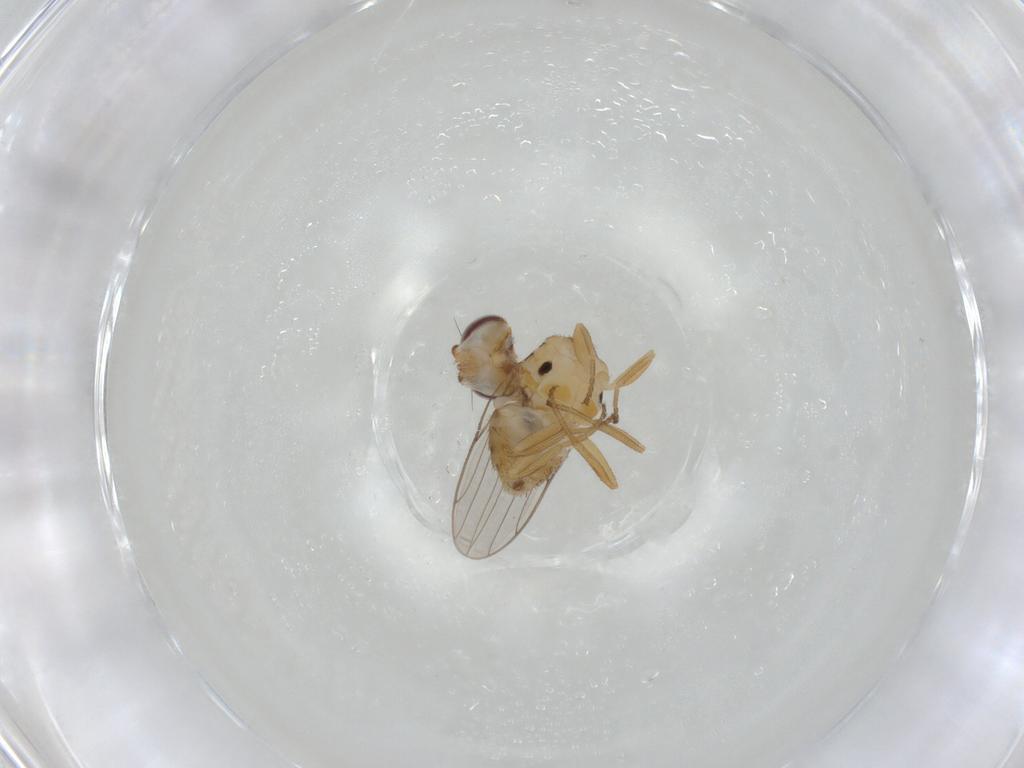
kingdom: Animalia
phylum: Arthropoda
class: Insecta
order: Diptera
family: Chloropidae
